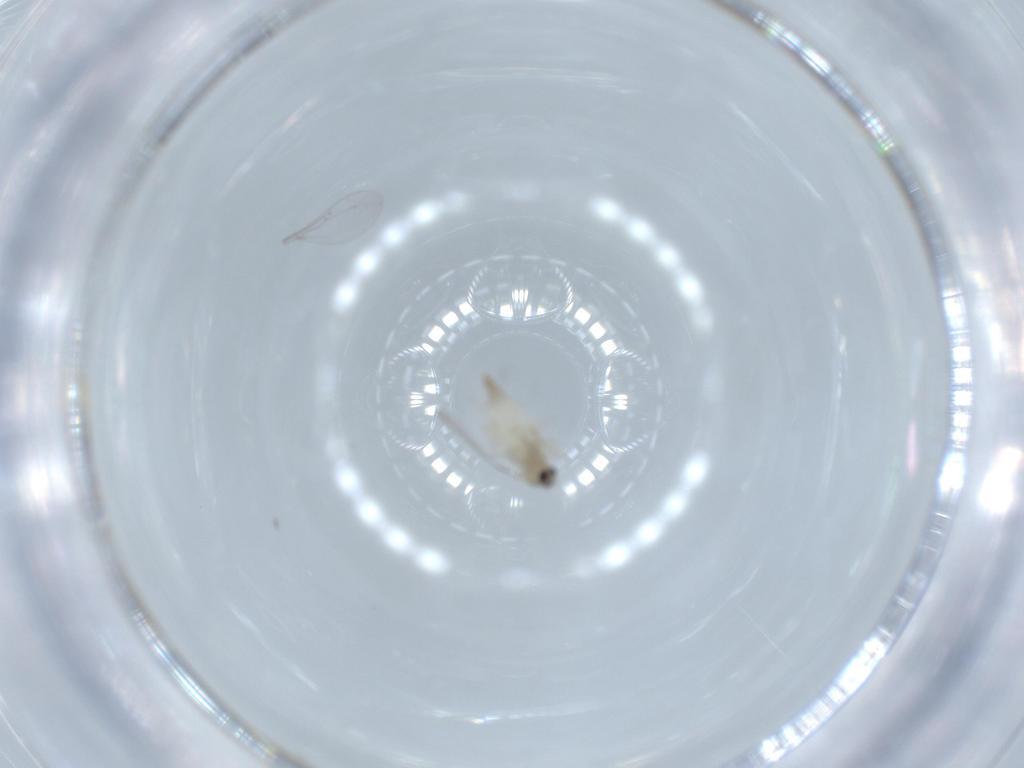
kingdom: Animalia
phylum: Arthropoda
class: Insecta
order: Diptera
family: Cecidomyiidae
